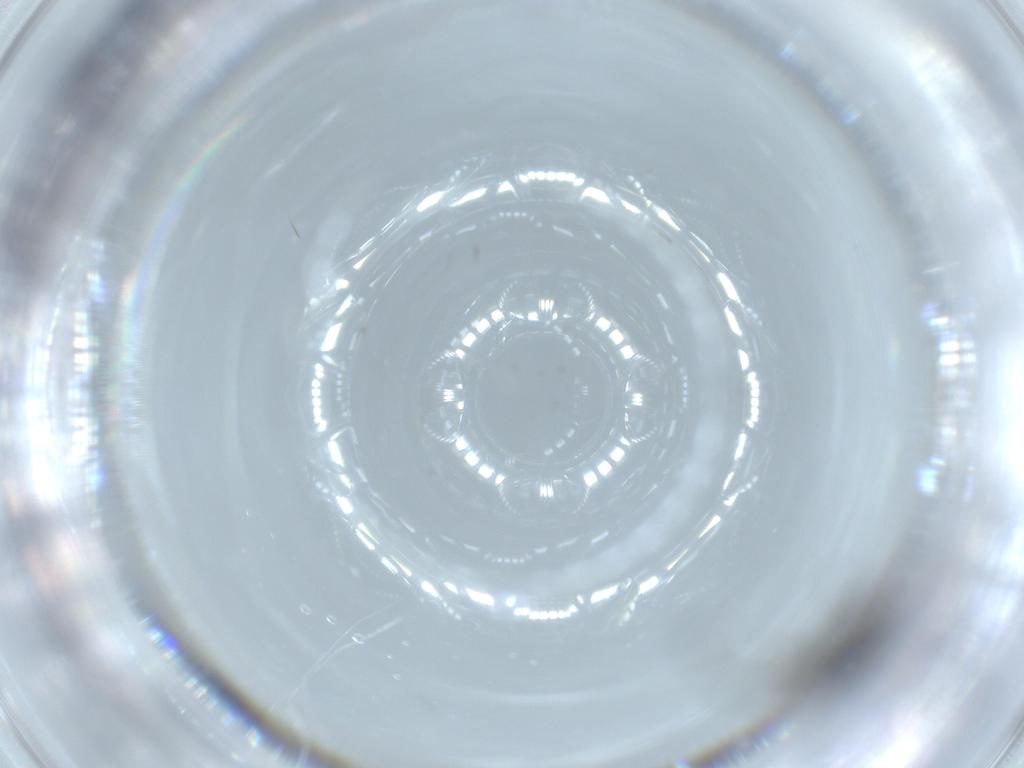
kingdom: Animalia
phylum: Arthropoda
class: Insecta
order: Diptera
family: Sciaridae
